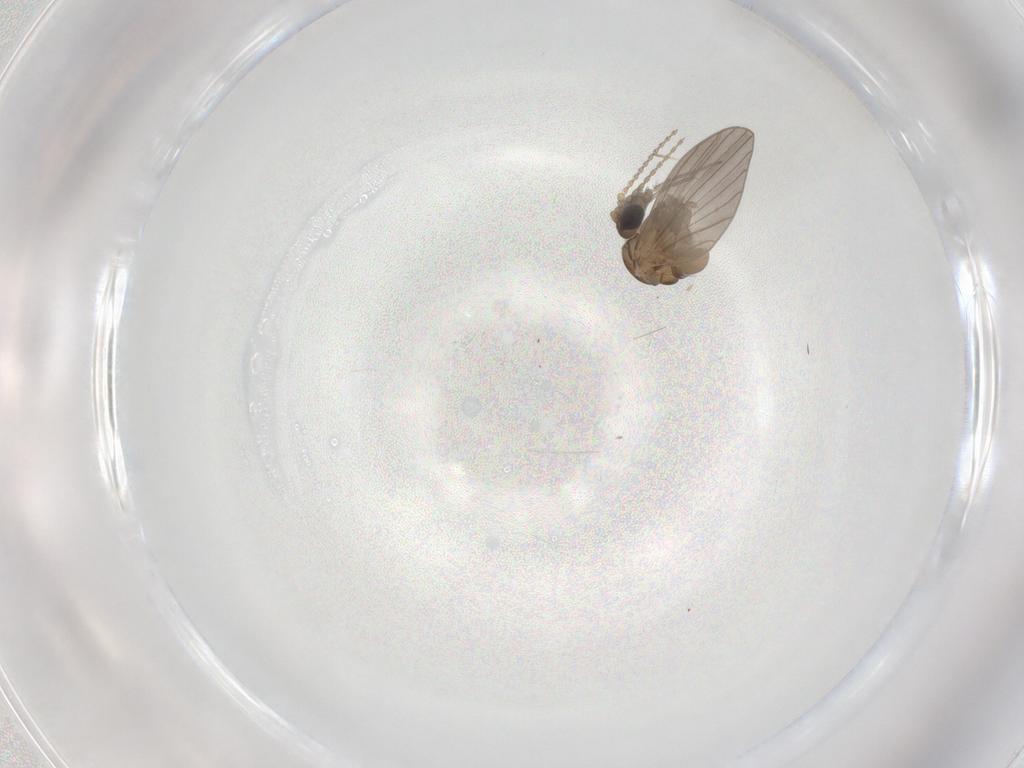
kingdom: Animalia
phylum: Arthropoda
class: Insecta
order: Diptera
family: Psychodidae
